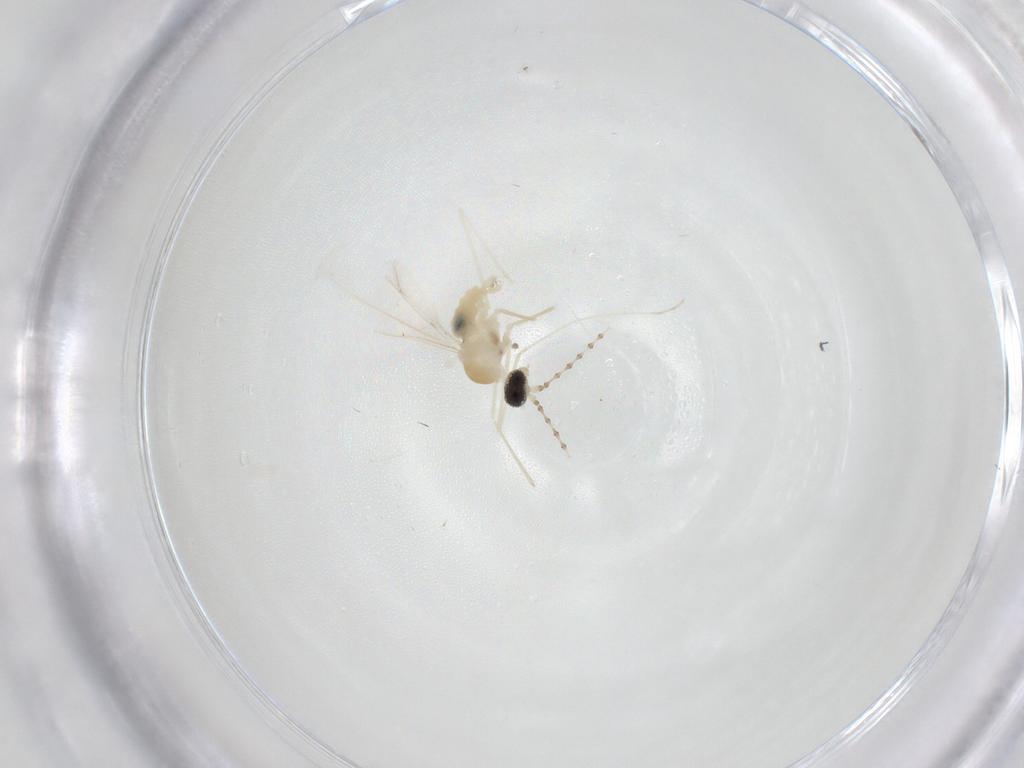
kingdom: Animalia
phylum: Arthropoda
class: Insecta
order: Diptera
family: Cecidomyiidae
